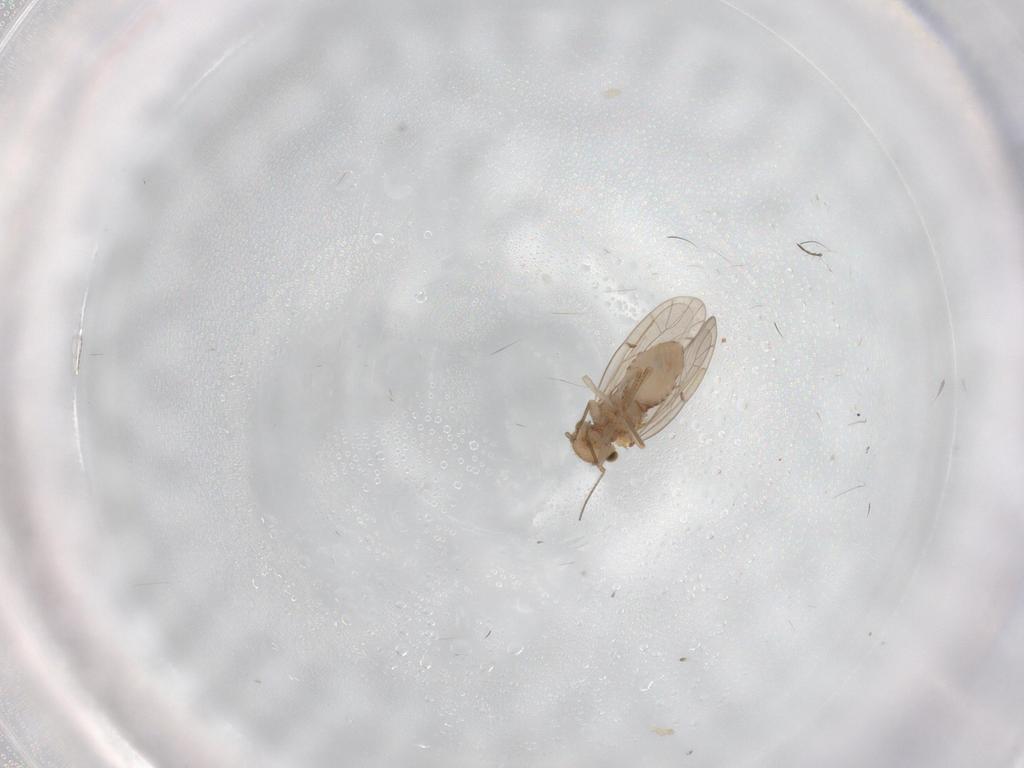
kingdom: Animalia
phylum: Arthropoda
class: Insecta
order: Psocodea
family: Ectopsocidae
